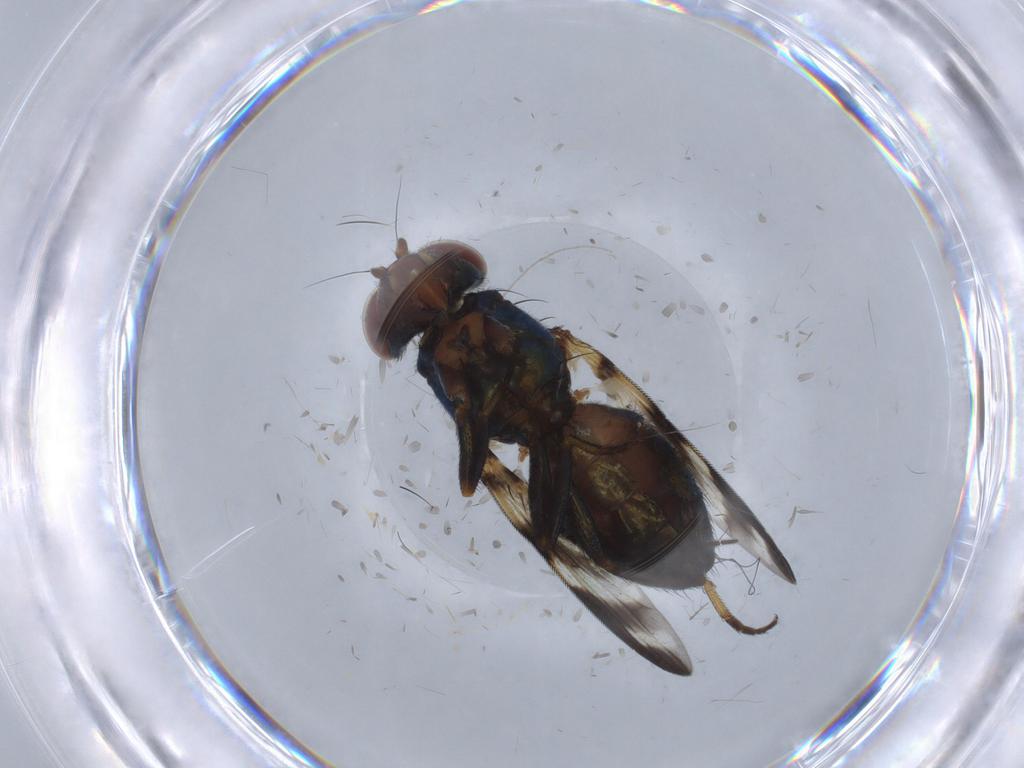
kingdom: Animalia
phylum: Arthropoda
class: Insecta
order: Diptera
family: Ulidiidae
